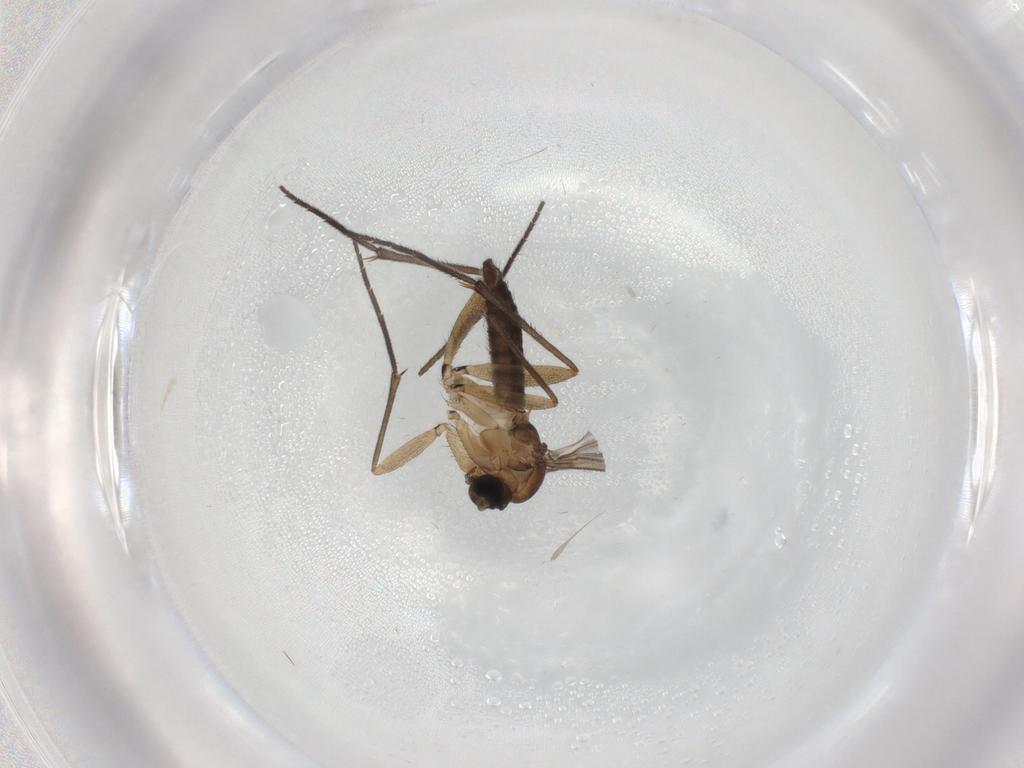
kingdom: Animalia
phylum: Arthropoda
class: Insecta
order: Diptera
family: Sciaridae
